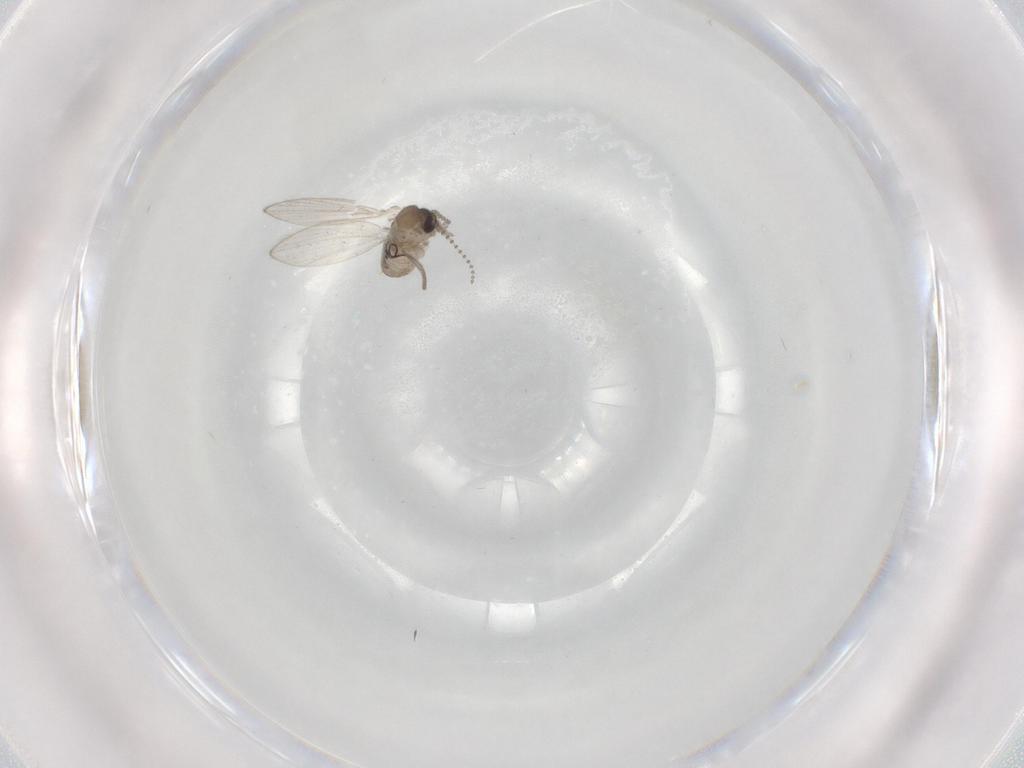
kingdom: Animalia
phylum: Arthropoda
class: Insecta
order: Diptera
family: Psychodidae
